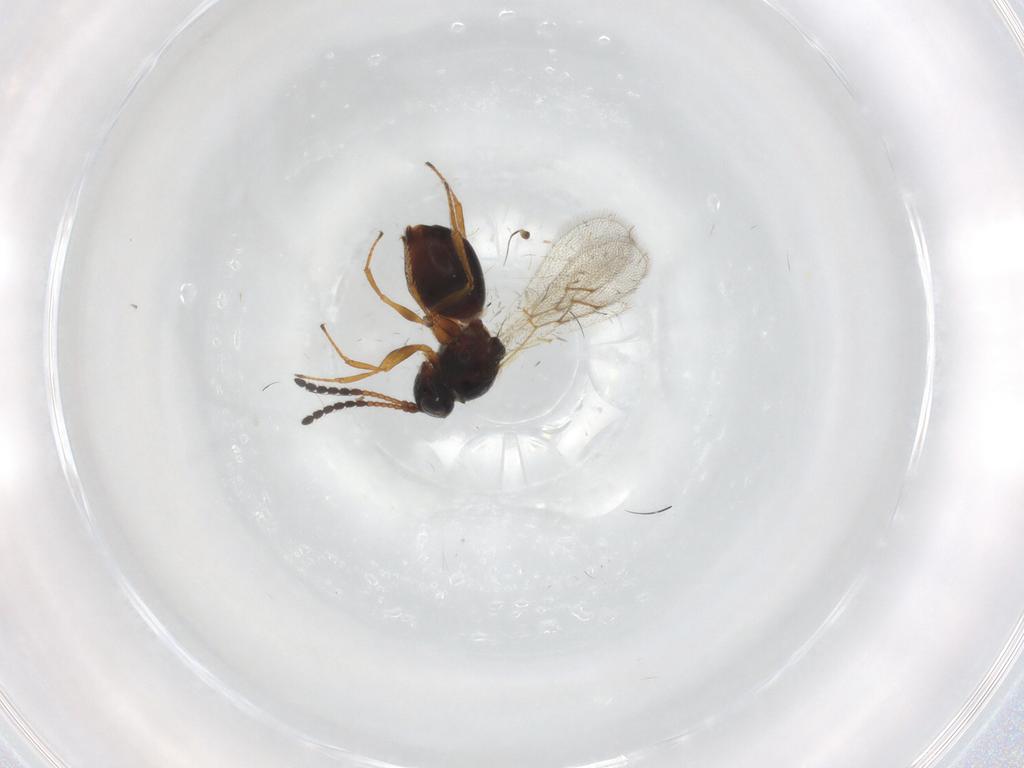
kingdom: Animalia
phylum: Arthropoda
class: Insecta
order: Hymenoptera
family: Figitidae
